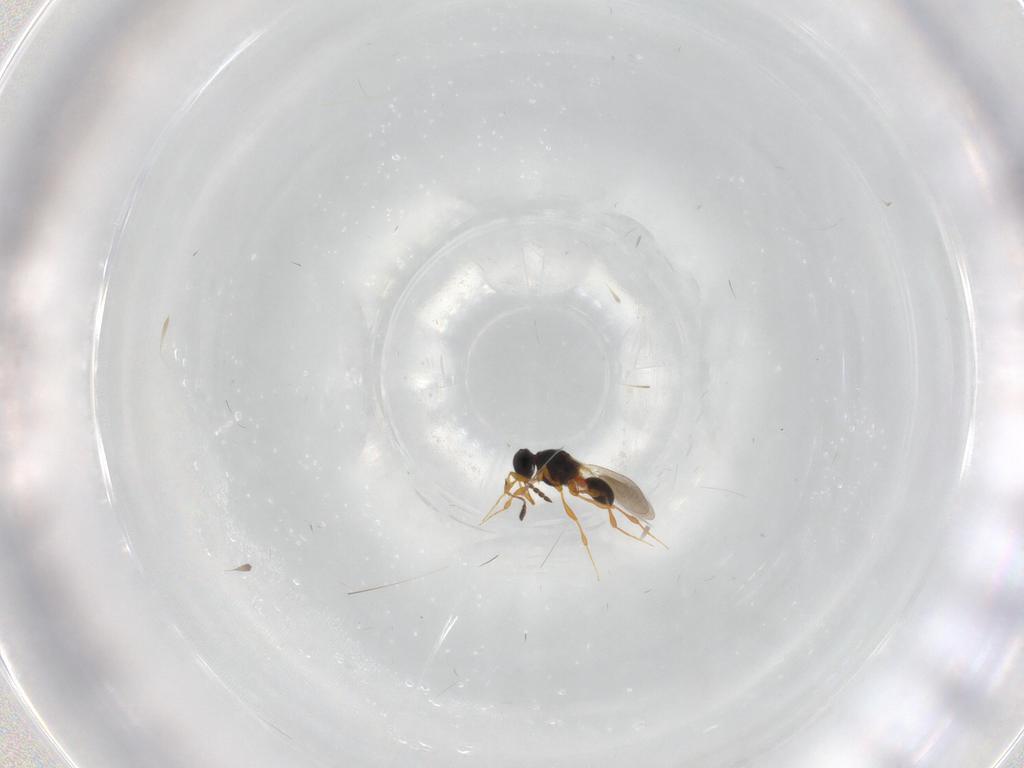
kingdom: Animalia
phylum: Arthropoda
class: Insecta
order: Hymenoptera
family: Platygastridae
